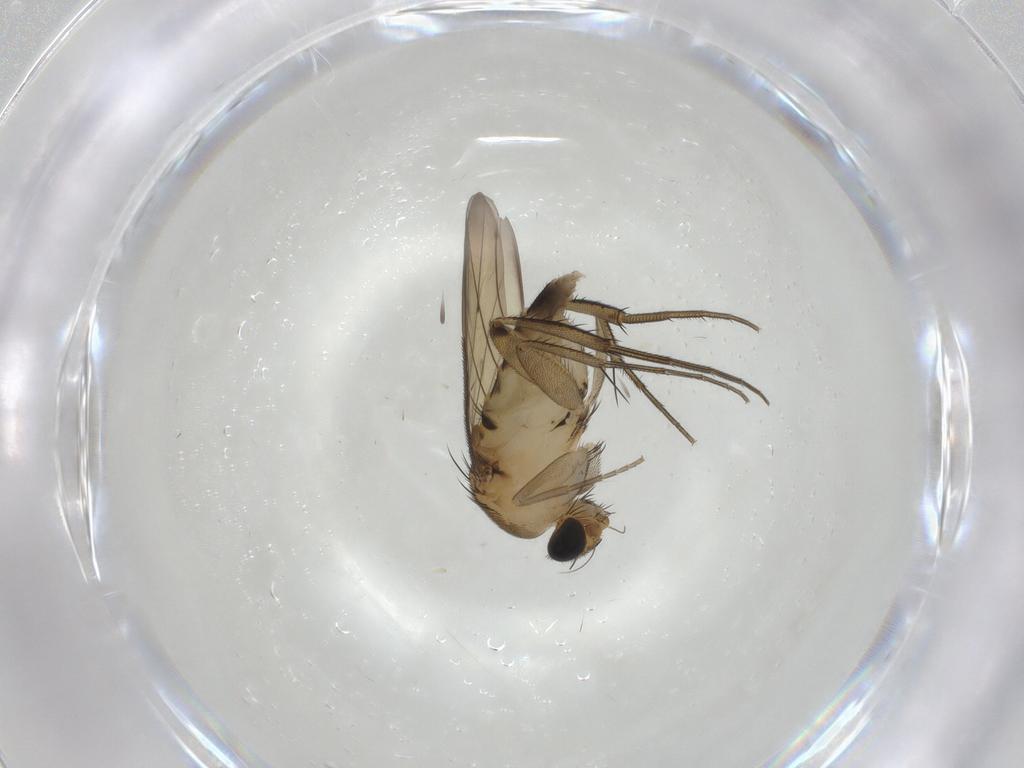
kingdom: Animalia
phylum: Arthropoda
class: Insecta
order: Diptera
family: Phoridae
